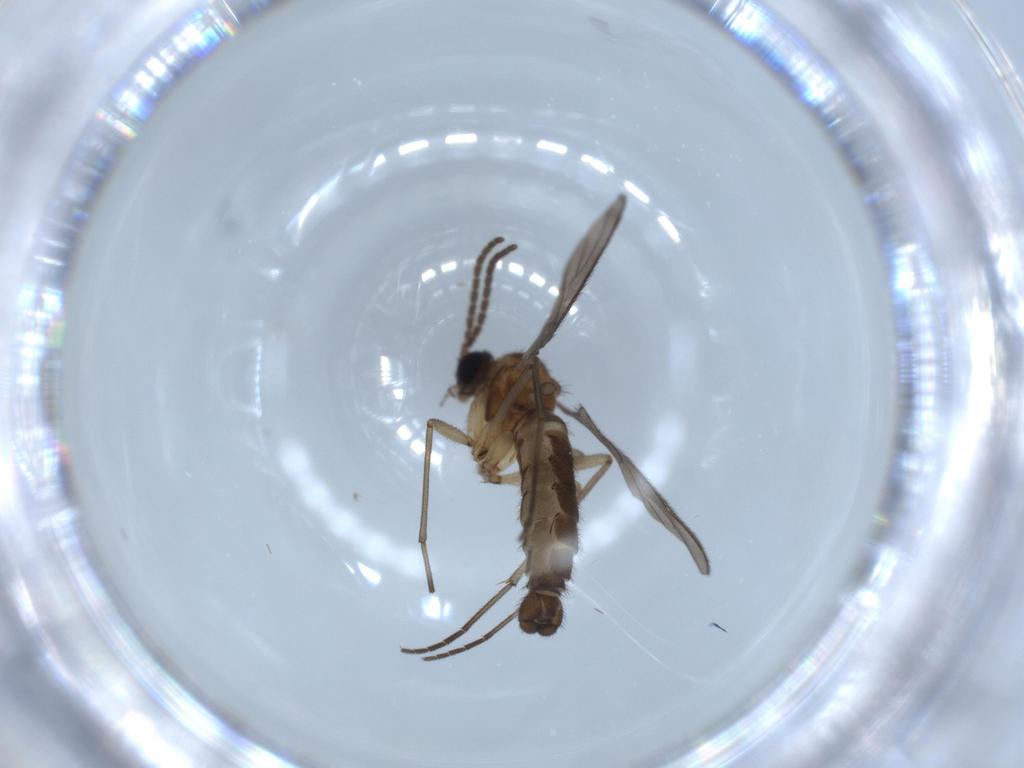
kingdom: Animalia
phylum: Arthropoda
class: Insecta
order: Diptera
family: Sciaridae
